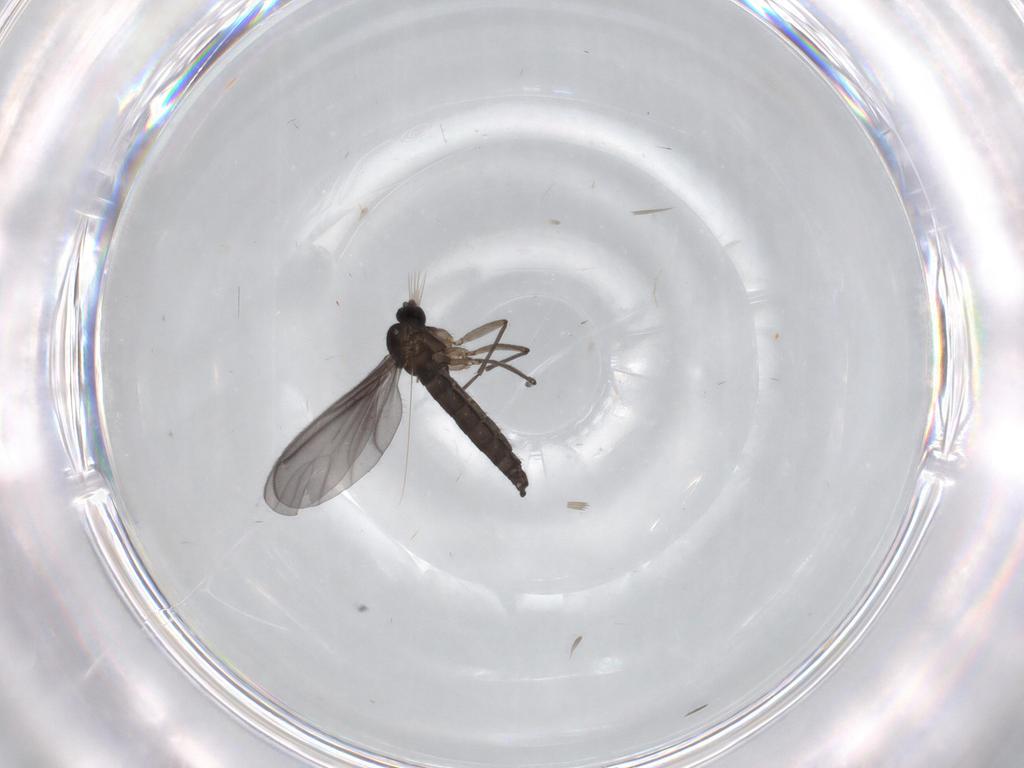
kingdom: Animalia
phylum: Arthropoda
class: Insecta
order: Diptera
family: Sciaridae
